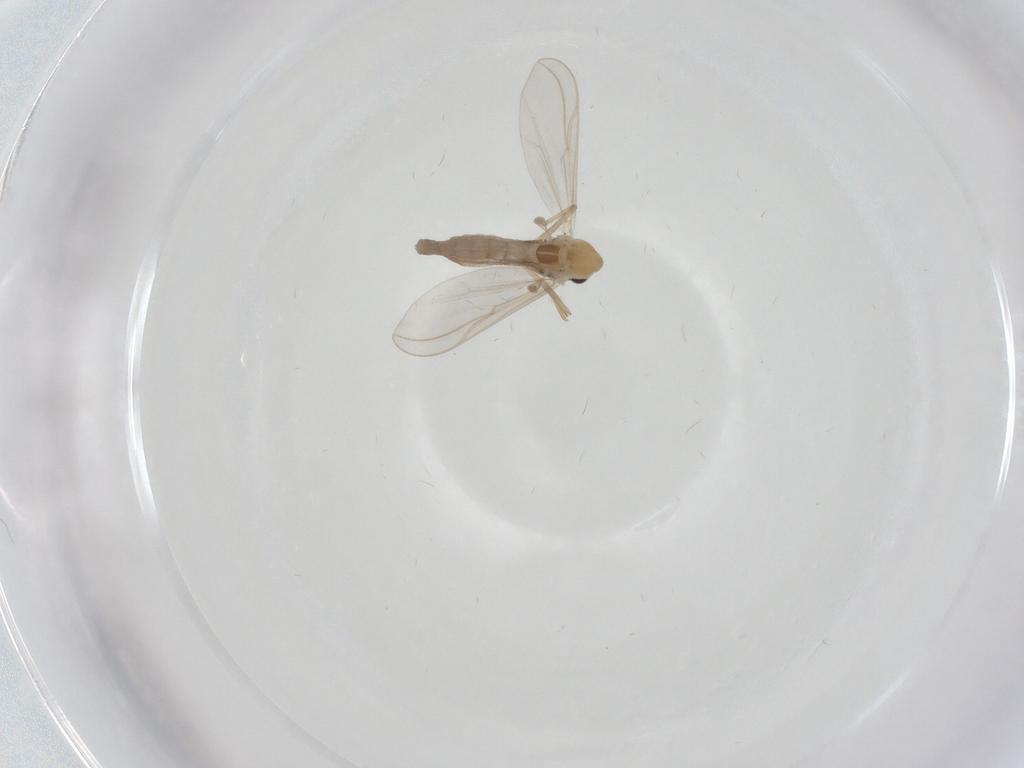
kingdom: Animalia
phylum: Arthropoda
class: Insecta
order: Diptera
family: Chironomidae
